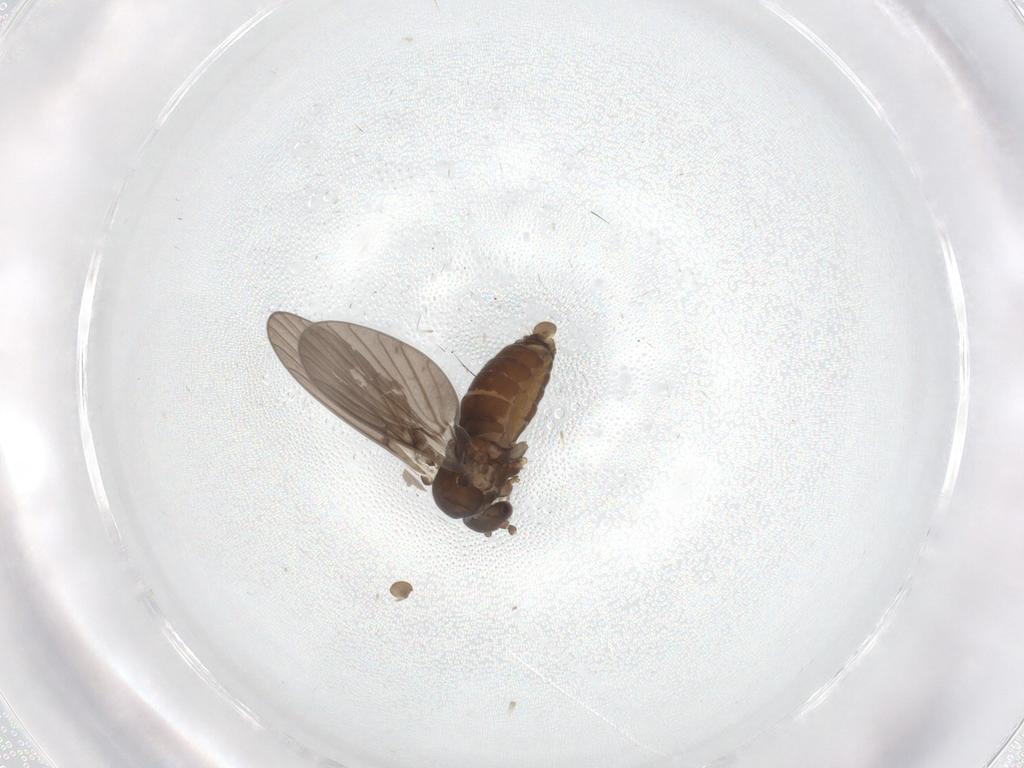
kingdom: Animalia
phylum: Arthropoda
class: Insecta
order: Diptera
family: Psychodidae
